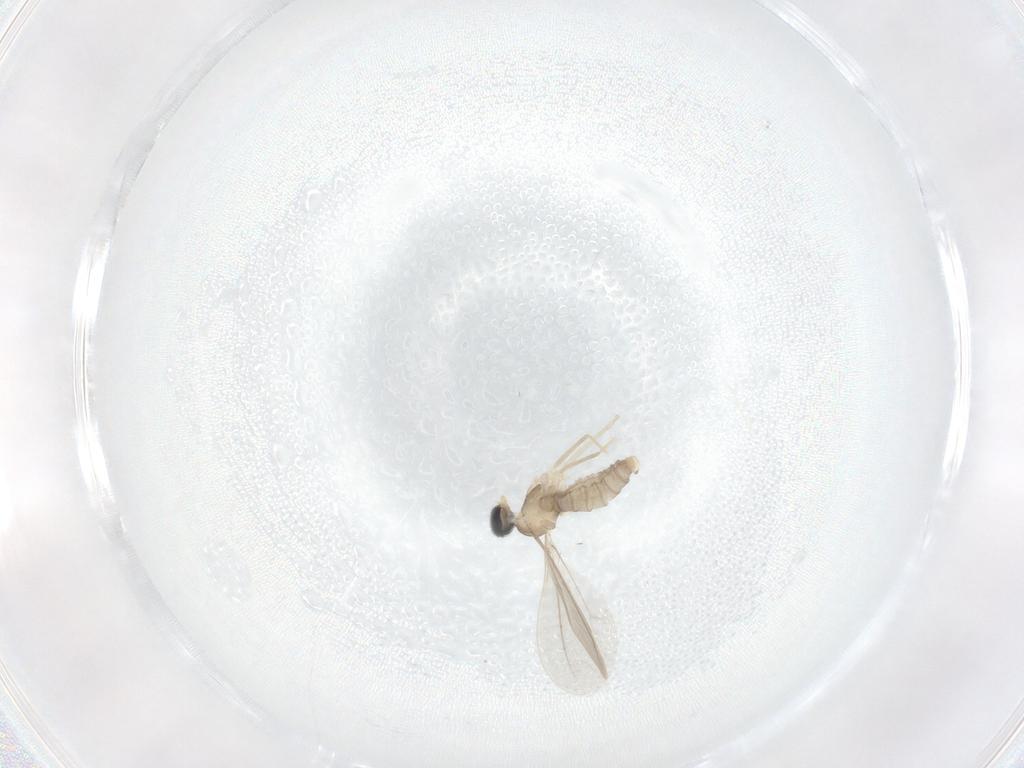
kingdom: Animalia
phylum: Arthropoda
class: Insecta
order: Diptera
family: Cecidomyiidae
